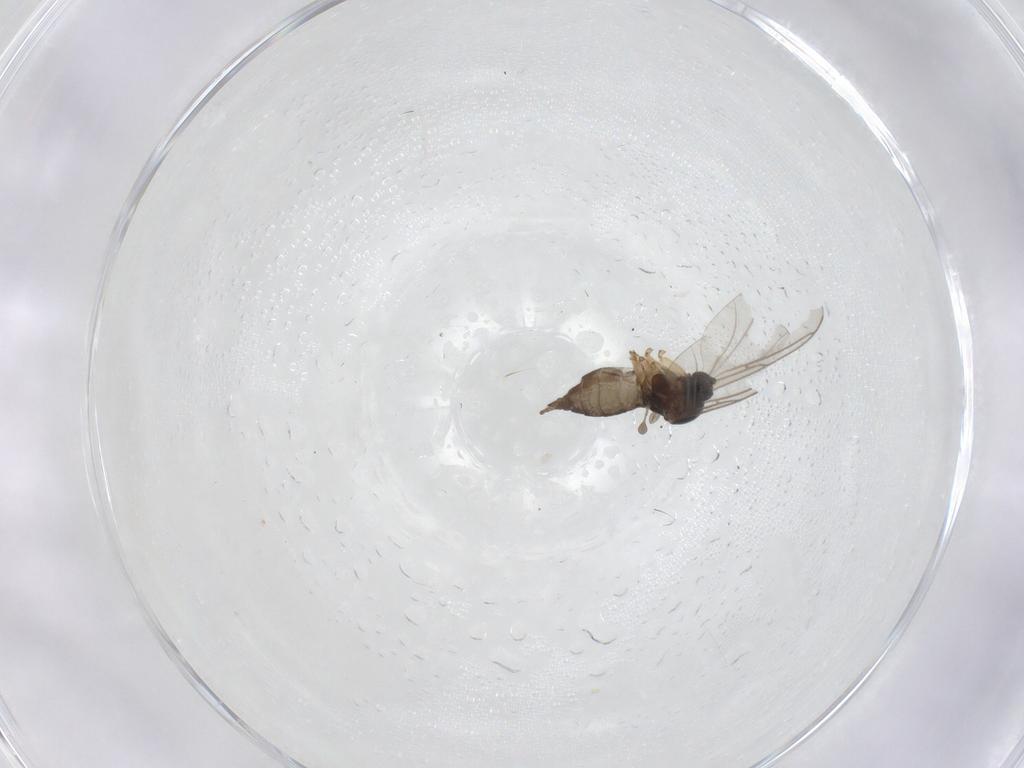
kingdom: Animalia
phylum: Arthropoda
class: Insecta
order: Diptera
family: Sciaridae
